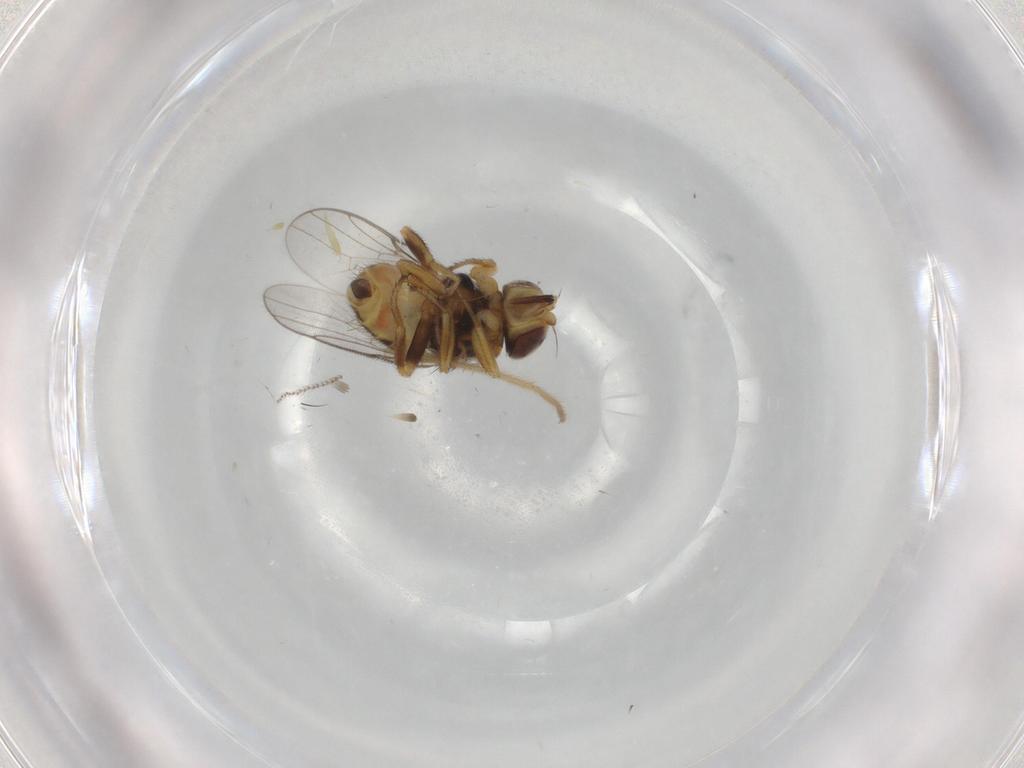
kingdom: Animalia
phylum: Arthropoda
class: Insecta
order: Diptera
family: Chloropidae
